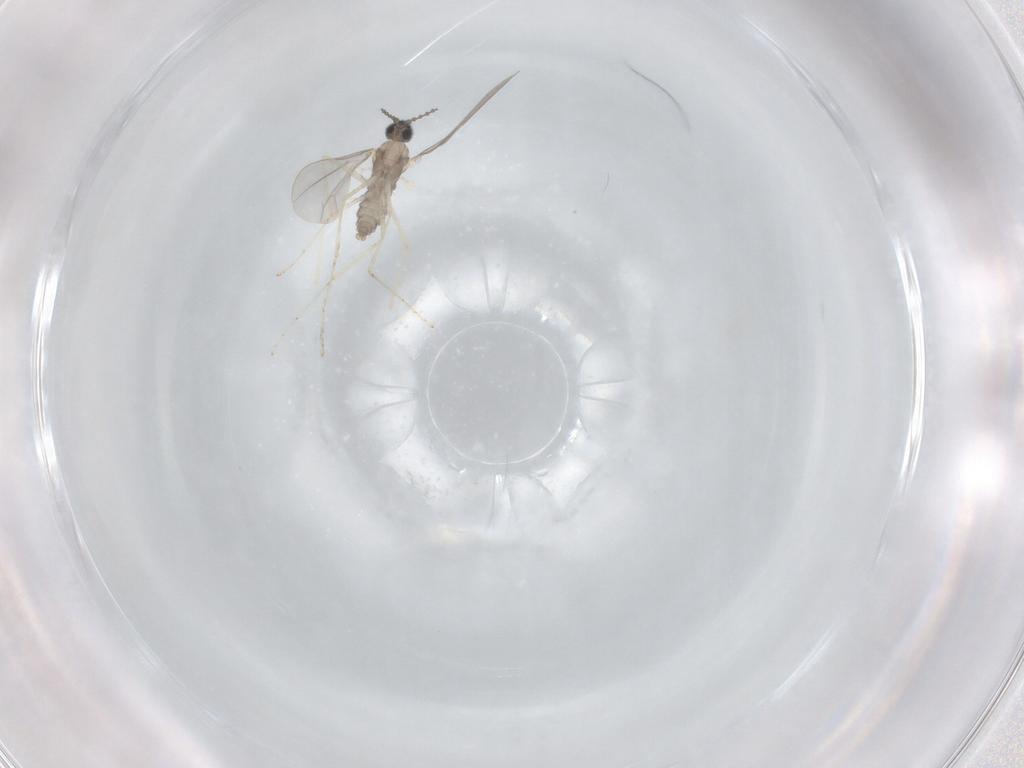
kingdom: Animalia
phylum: Arthropoda
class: Insecta
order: Diptera
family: Cecidomyiidae
